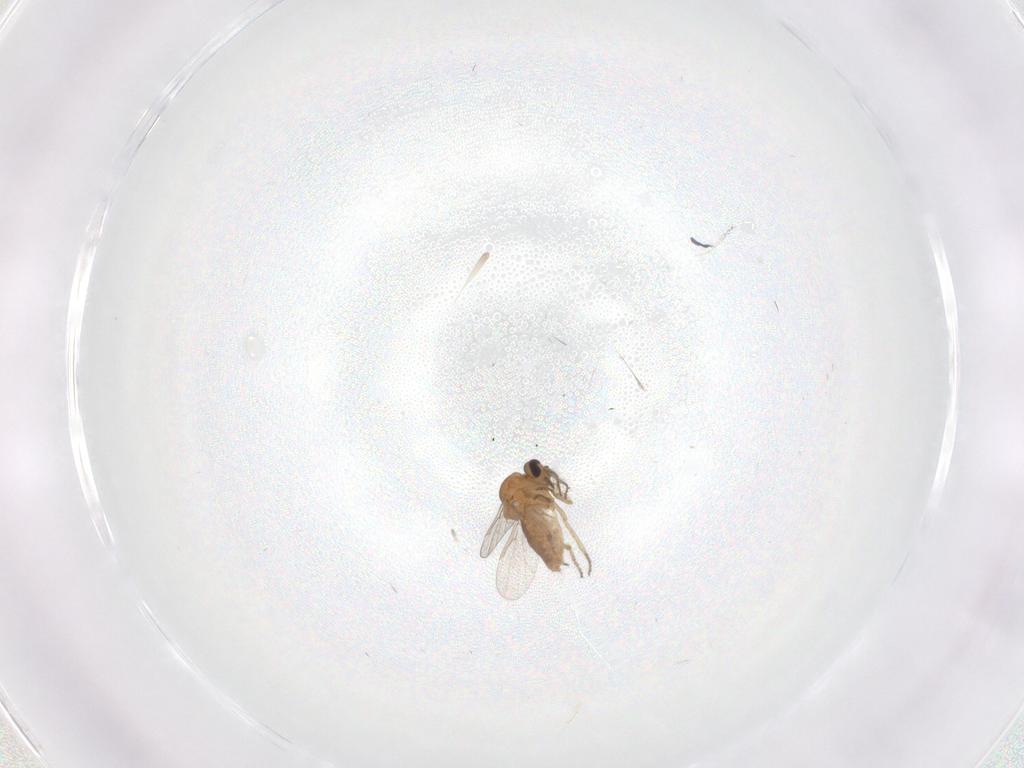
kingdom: Animalia
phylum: Arthropoda
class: Insecta
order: Diptera
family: Ceratopogonidae
